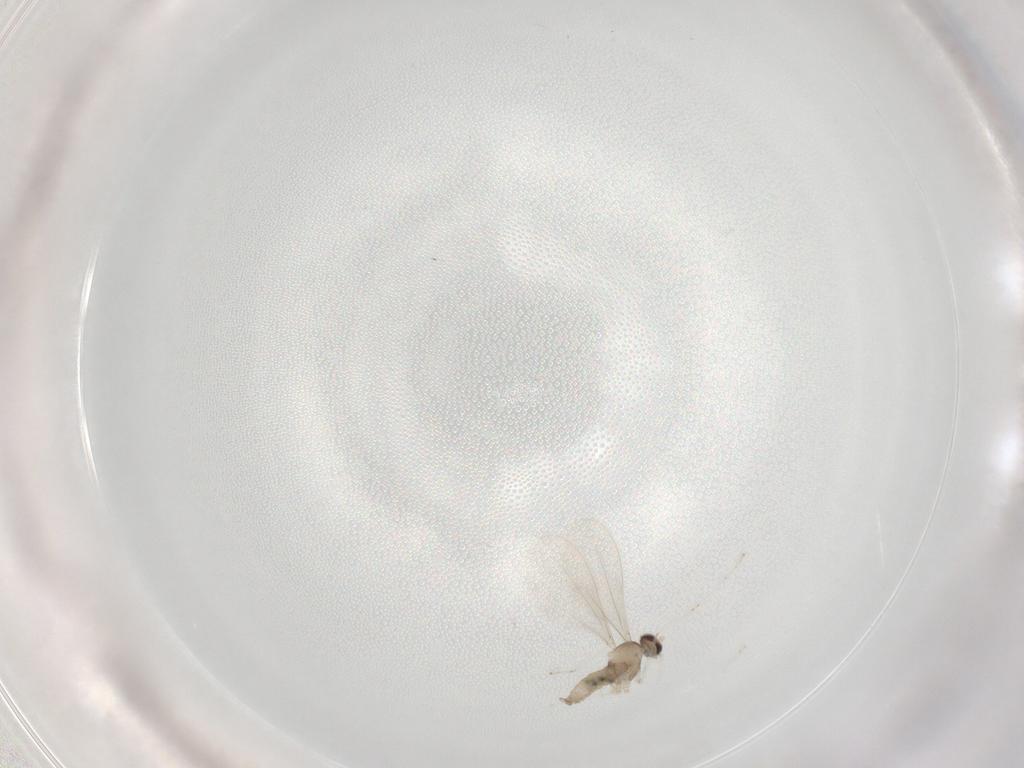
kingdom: Animalia
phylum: Arthropoda
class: Insecta
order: Diptera
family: Cecidomyiidae
